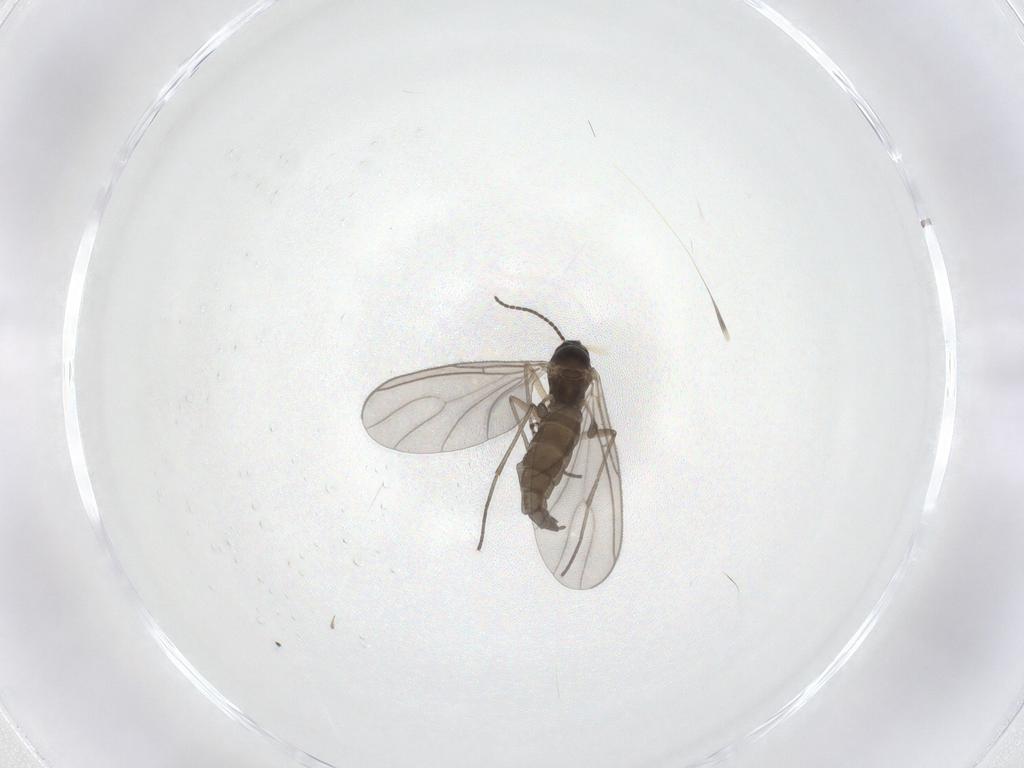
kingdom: Animalia
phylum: Arthropoda
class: Insecta
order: Diptera
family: Sciaridae
